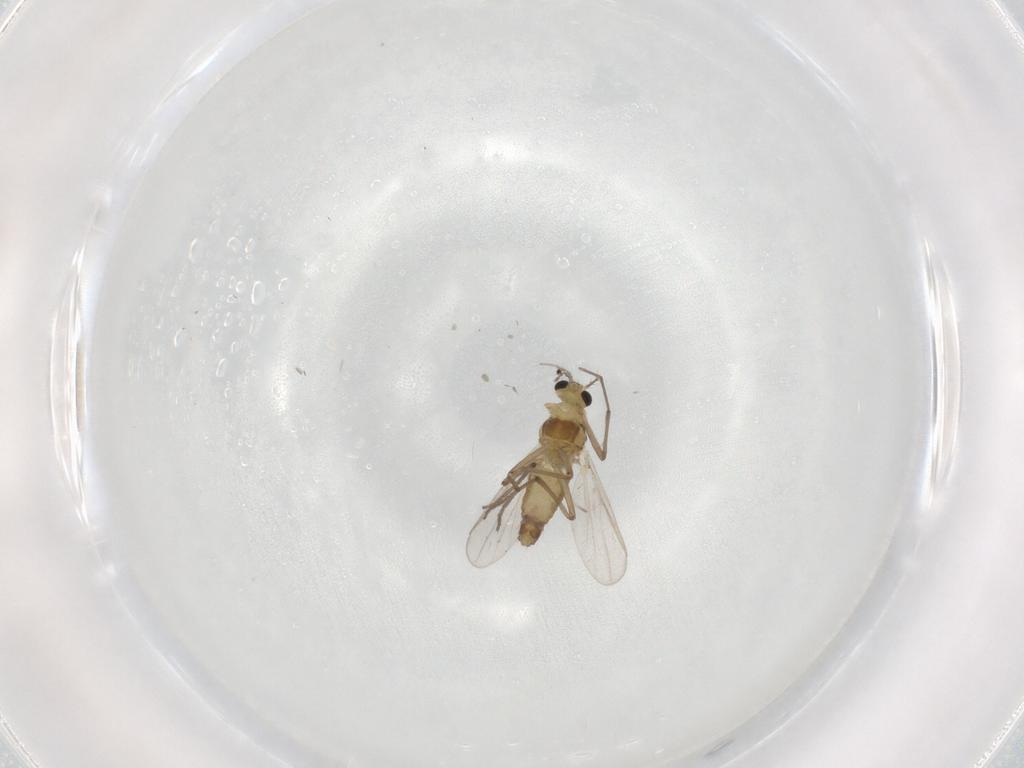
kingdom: Animalia
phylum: Arthropoda
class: Insecta
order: Diptera
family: Chironomidae
